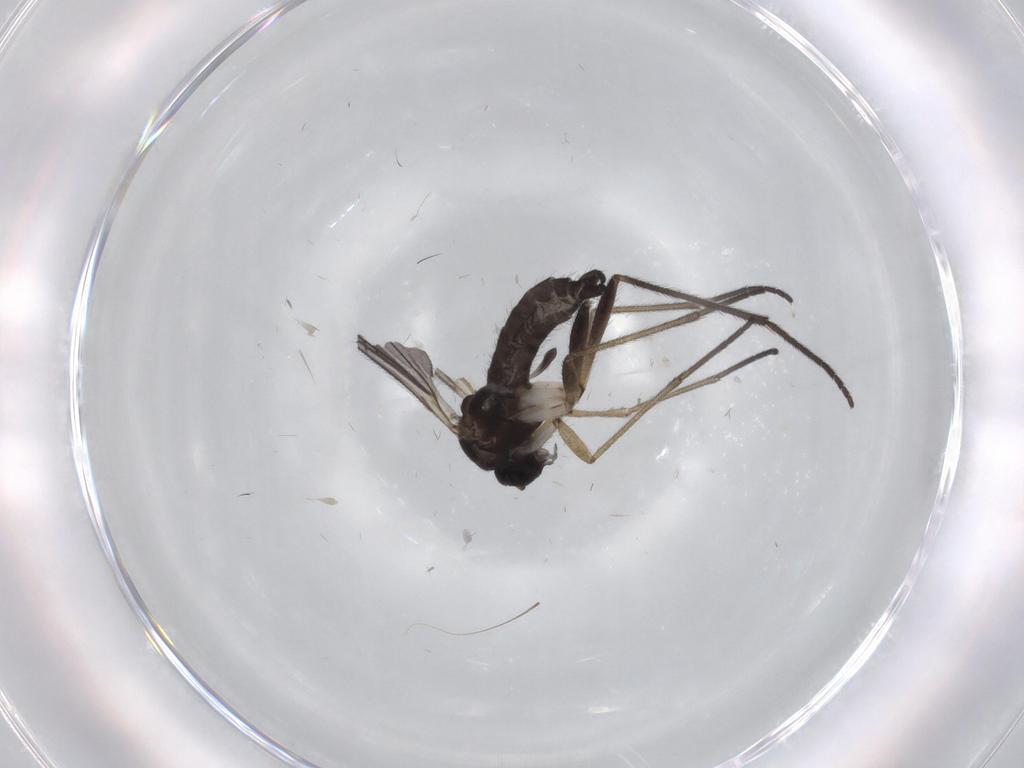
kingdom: Animalia
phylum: Arthropoda
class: Insecta
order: Diptera
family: Sciaridae
